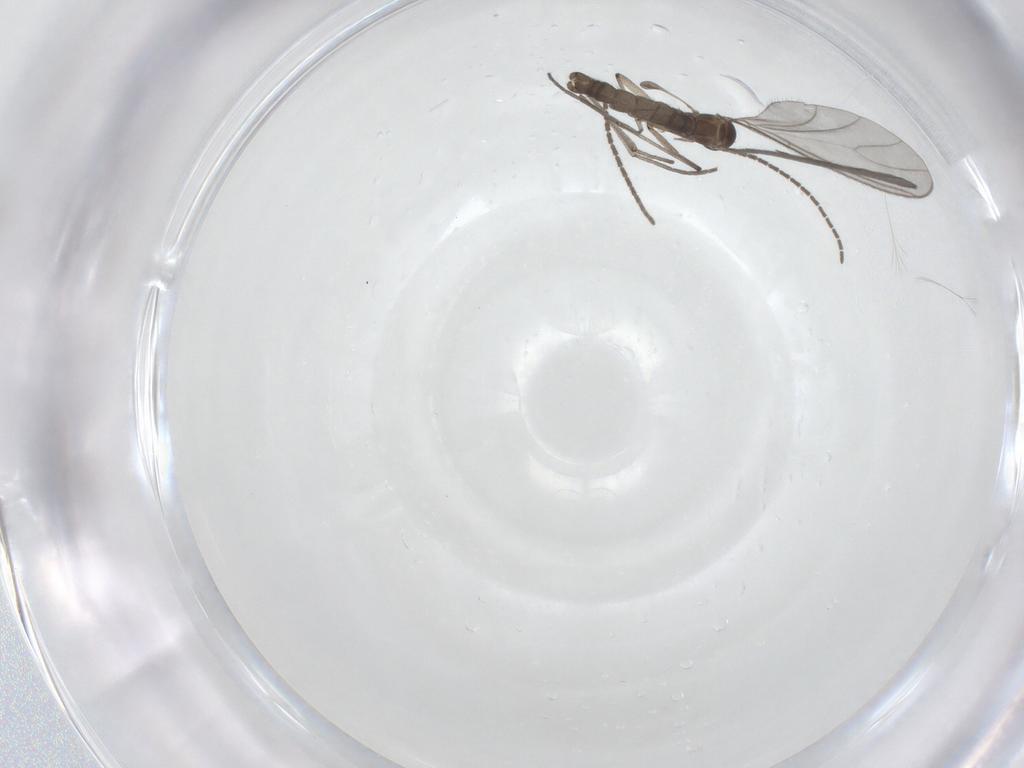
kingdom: Animalia
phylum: Arthropoda
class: Insecta
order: Diptera
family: Sciaridae
